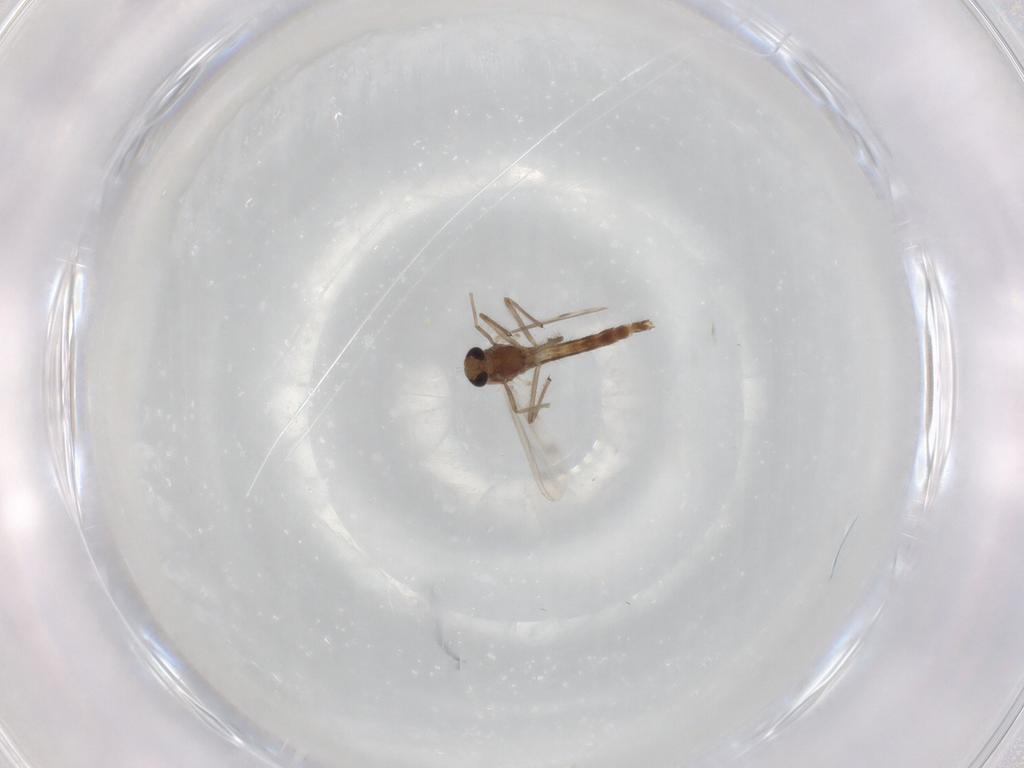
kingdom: Animalia
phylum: Arthropoda
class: Insecta
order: Diptera
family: Chironomidae
